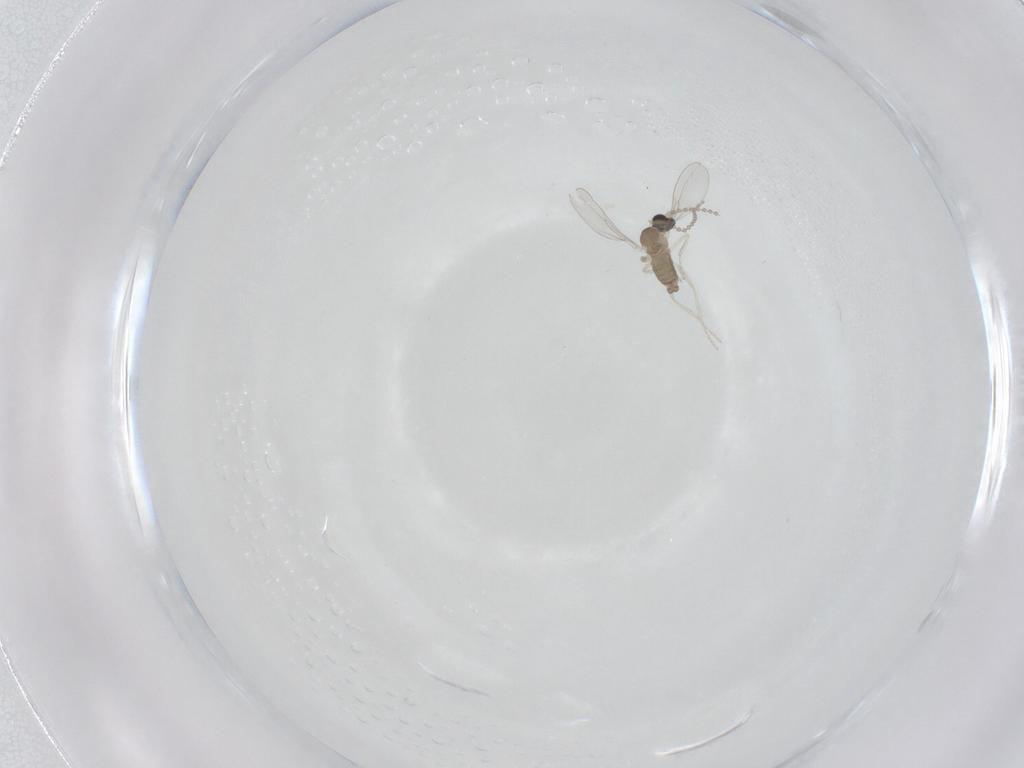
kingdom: Animalia
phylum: Arthropoda
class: Insecta
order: Diptera
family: Cecidomyiidae
